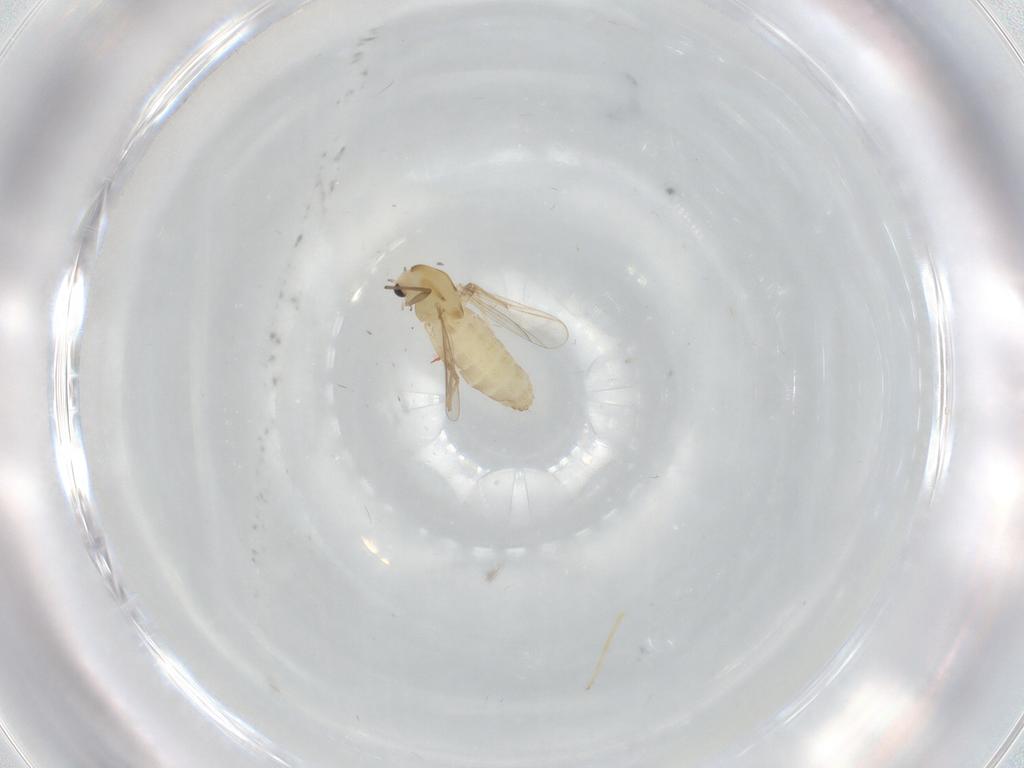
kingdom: Animalia
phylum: Arthropoda
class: Insecta
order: Diptera
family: Chironomidae
